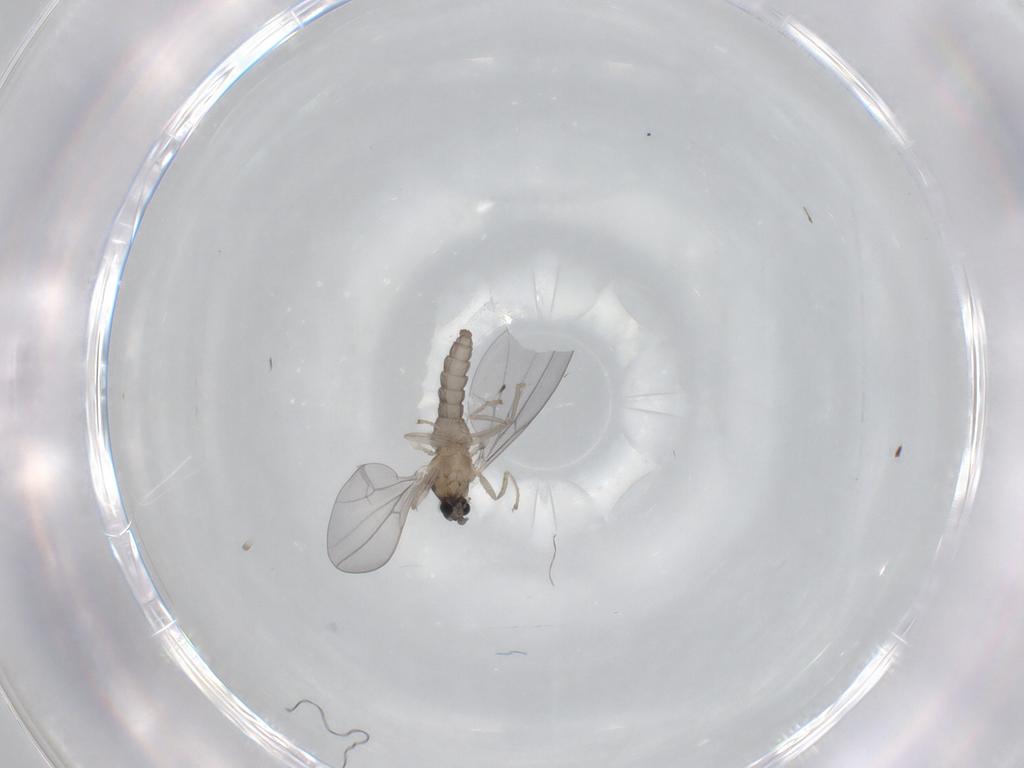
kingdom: Animalia
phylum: Arthropoda
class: Insecta
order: Diptera
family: Cecidomyiidae
